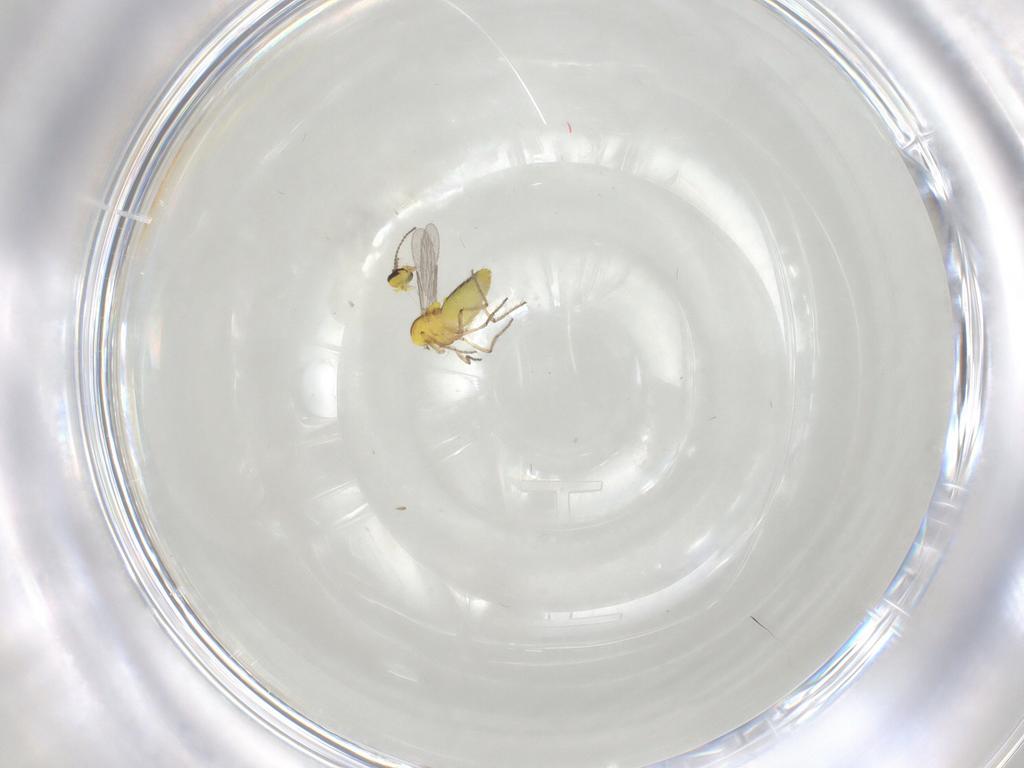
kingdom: Animalia
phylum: Arthropoda
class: Insecta
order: Diptera
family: Ceratopogonidae
